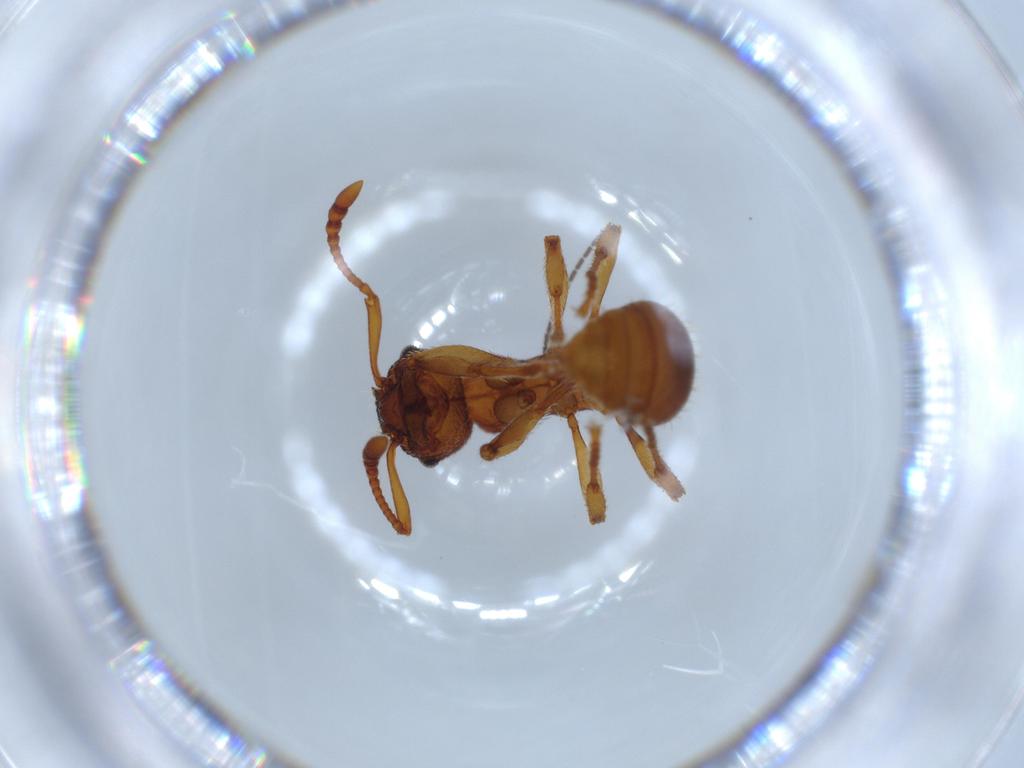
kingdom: Animalia
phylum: Arthropoda
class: Insecta
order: Hymenoptera
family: Formicidae
